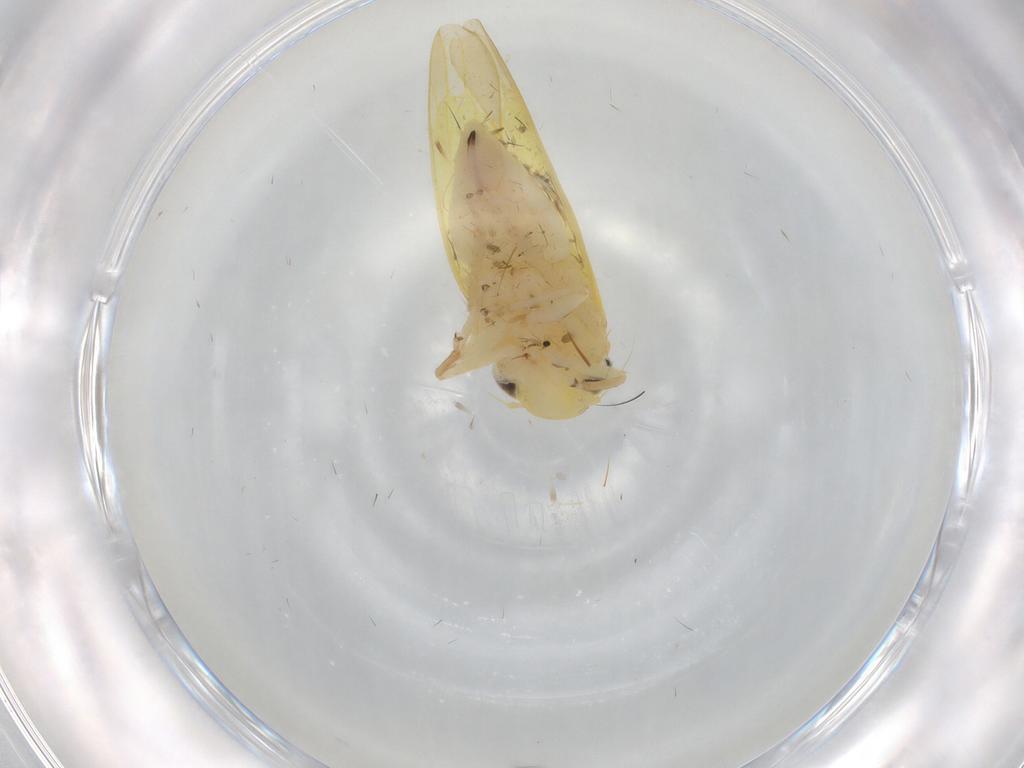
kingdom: Animalia
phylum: Arthropoda
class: Insecta
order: Hemiptera
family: Cicadellidae
